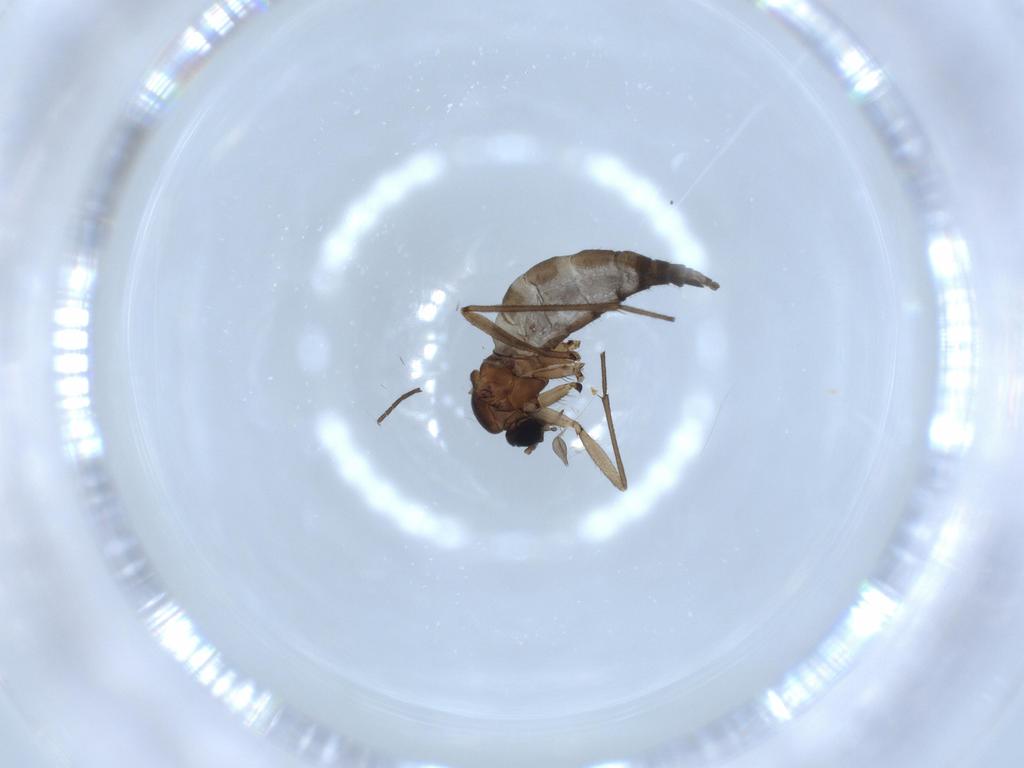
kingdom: Animalia
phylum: Arthropoda
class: Insecta
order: Diptera
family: Sciaridae
